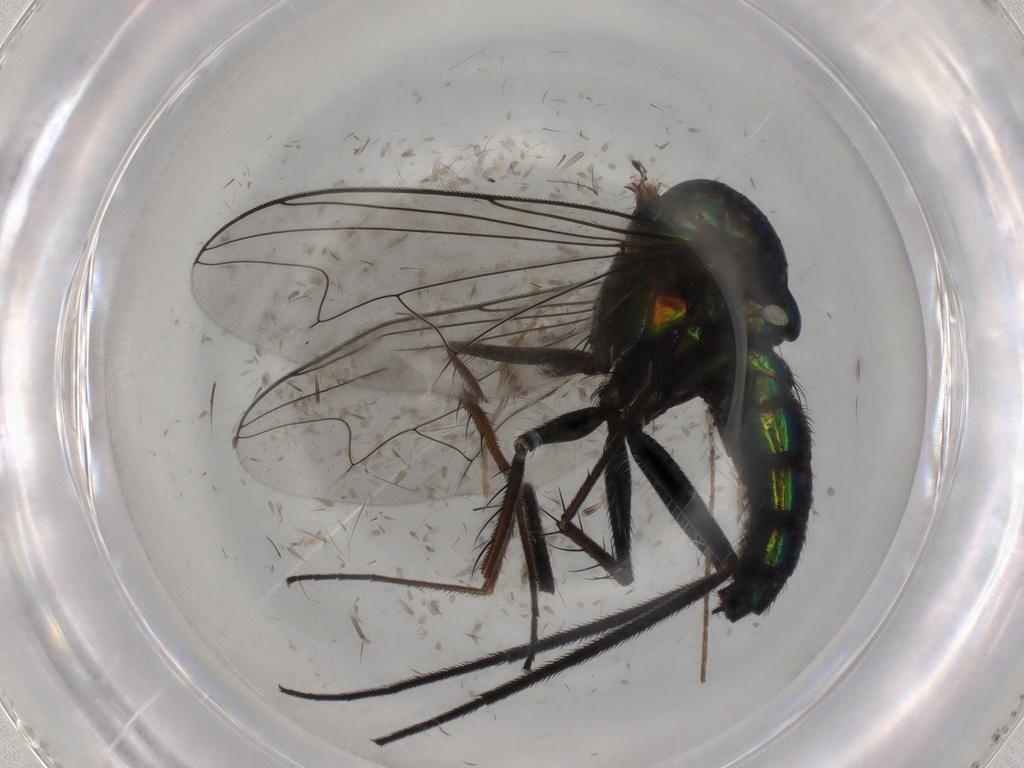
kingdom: Animalia
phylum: Arthropoda
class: Insecta
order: Diptera
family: Dolichopodidae
